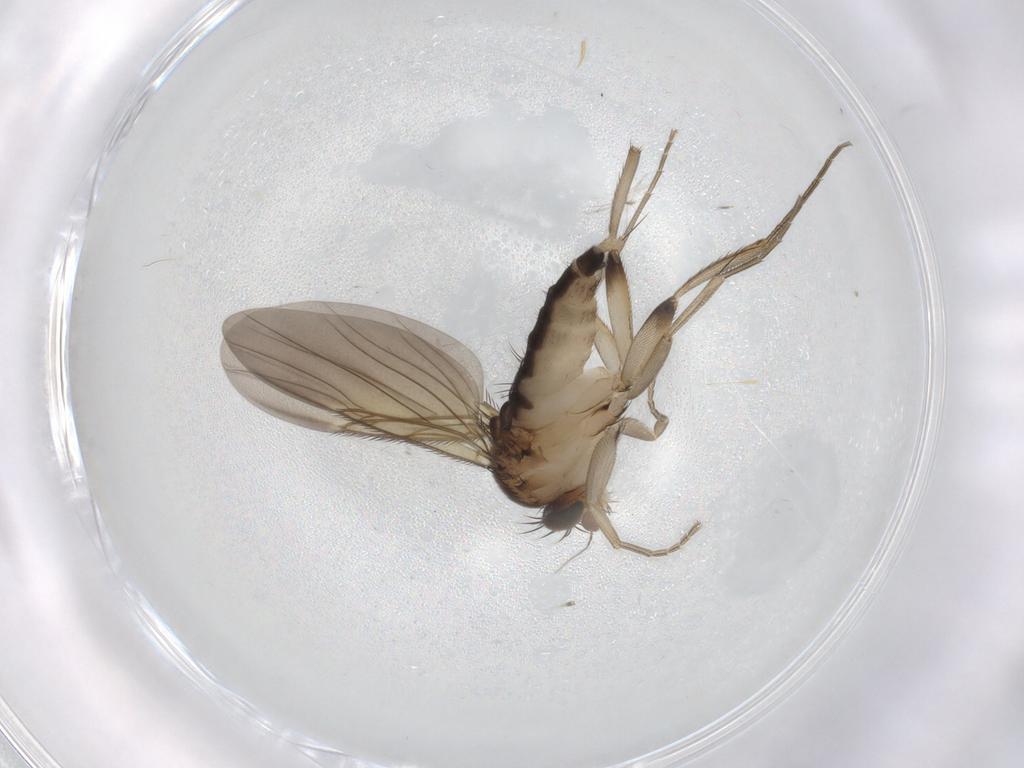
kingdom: Animalia
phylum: Arthropoda
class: Insecta
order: Diptera
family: Phoridae
